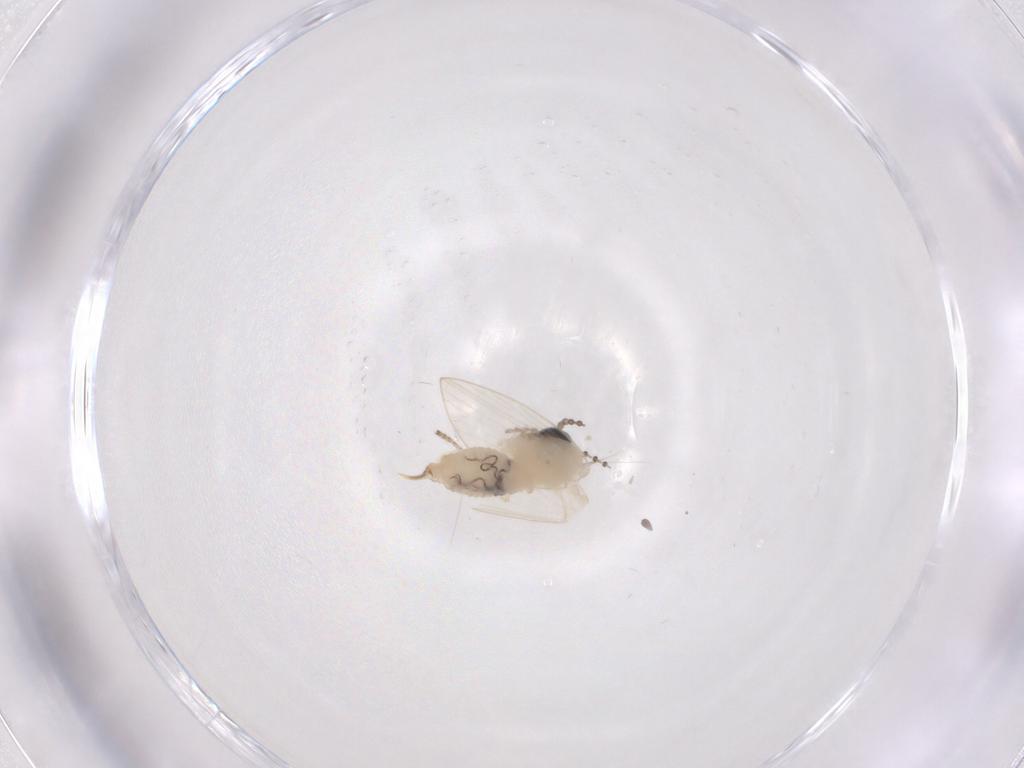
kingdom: Animalia
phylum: Arthropoda
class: Insecta
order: Diptera
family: Psychodidae
